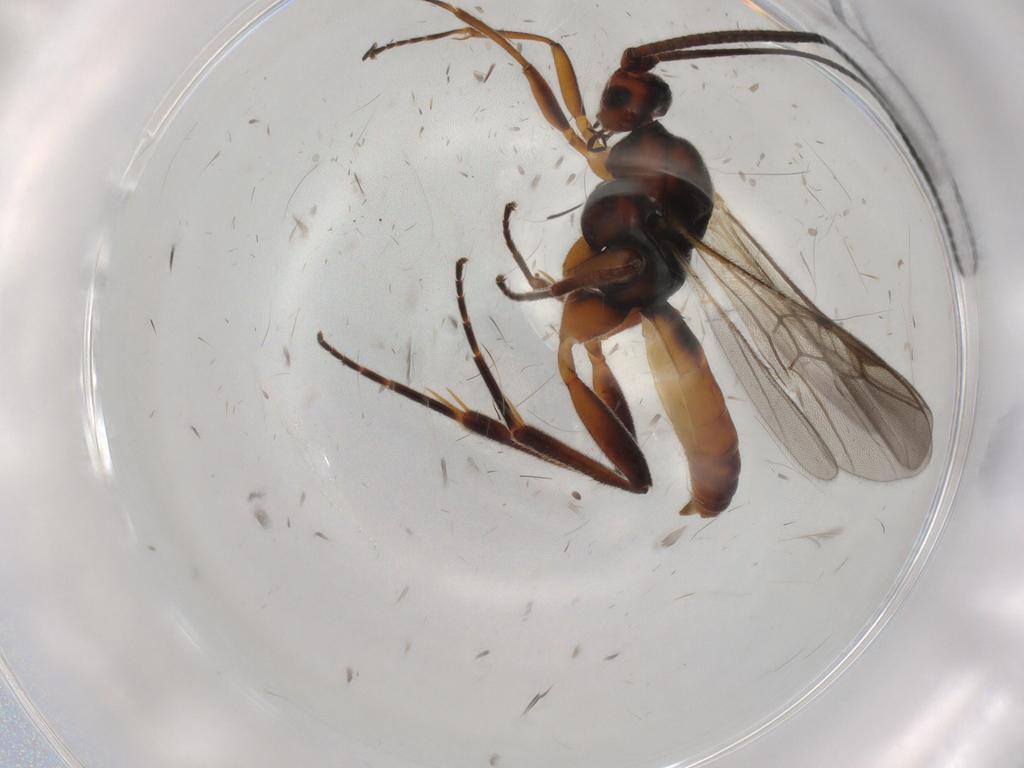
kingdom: Animalia
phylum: Arthropoda
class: Insecta
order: Hymenoptera
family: Braconidae
